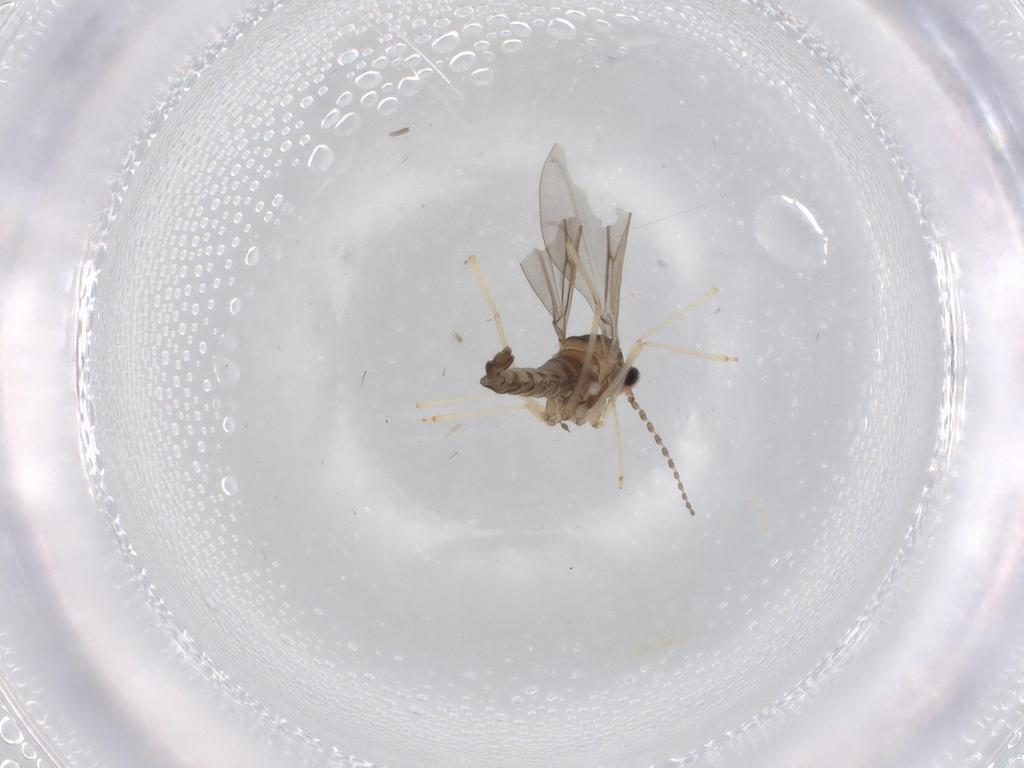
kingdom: Animalia
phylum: Arthropoda
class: Insecta
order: Diptera
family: Cecidomyiidae
